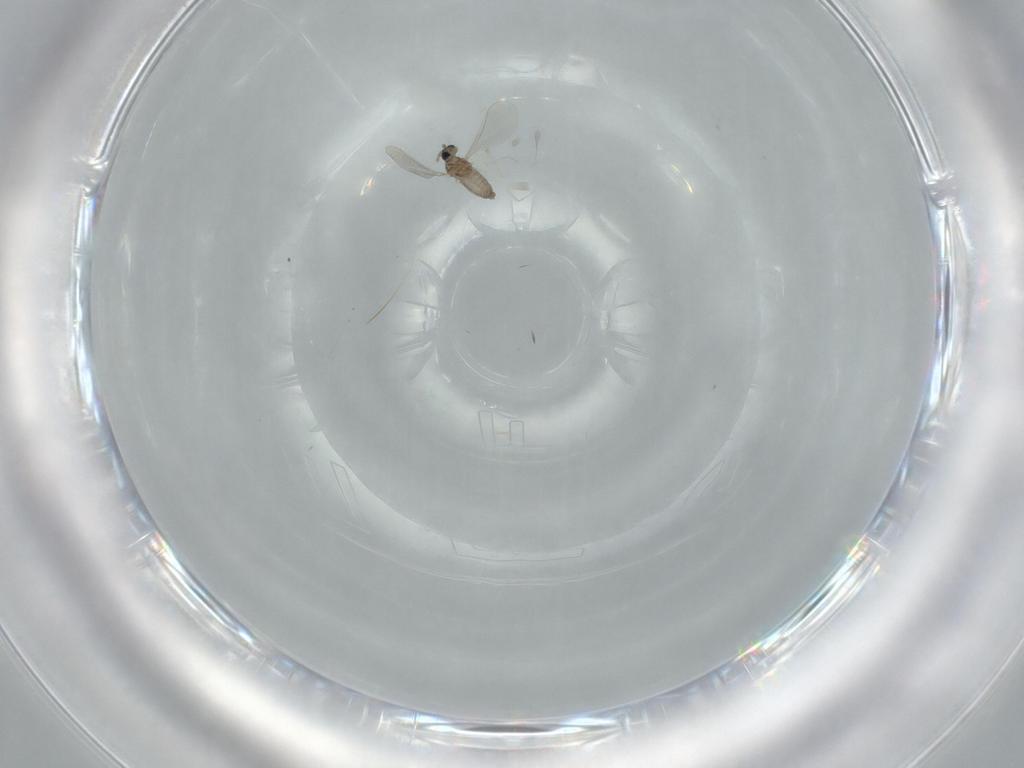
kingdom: Animalia
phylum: Arthropoda
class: Insecta
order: Diptera
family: Cecidomyiidae
